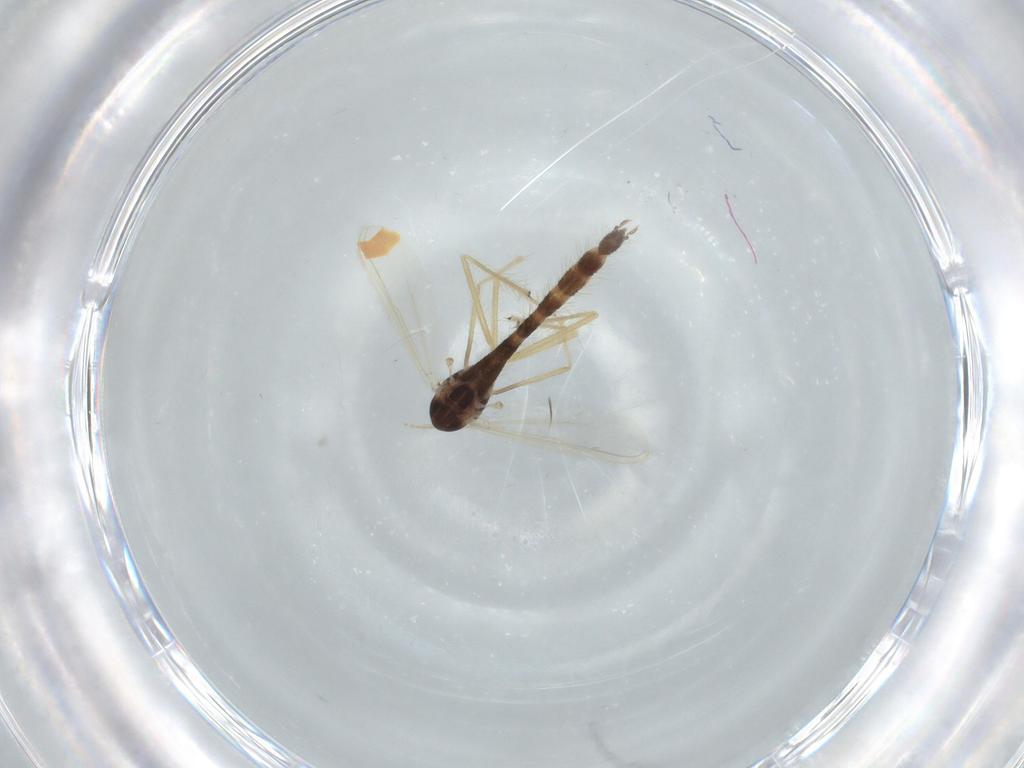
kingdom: Animalia
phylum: Arthropoda
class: Insecta
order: Diptera
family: Chironomidae
